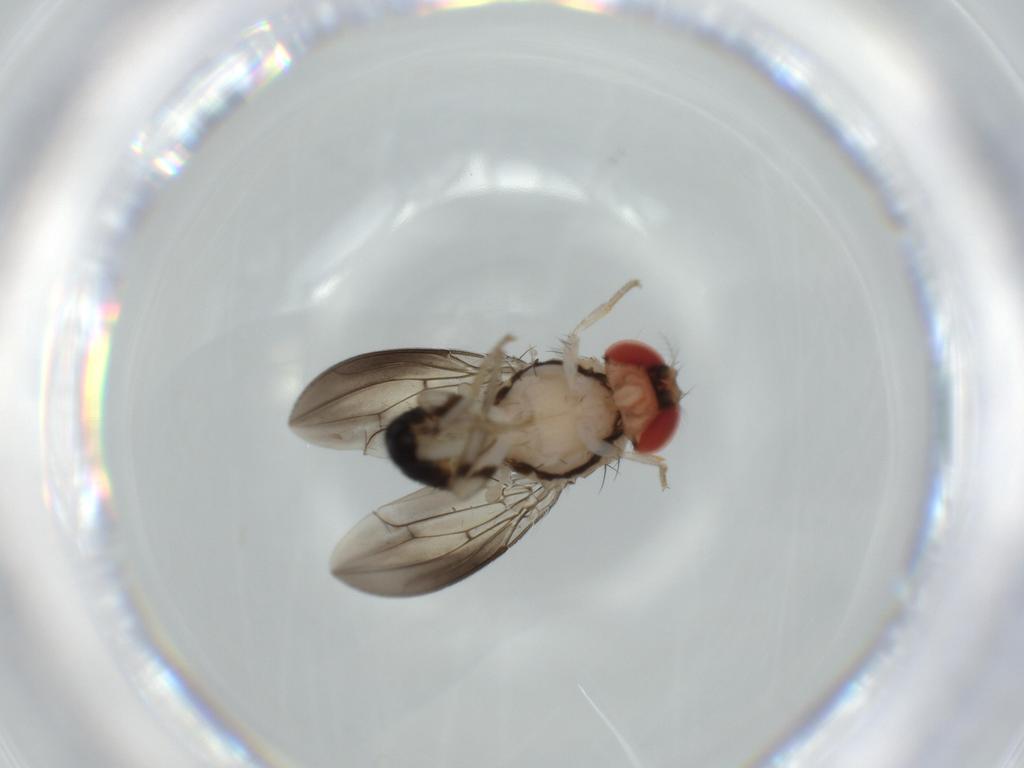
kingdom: Animalia
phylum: Arthropoda
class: Insecta
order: Diptera
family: Drosophilidae
